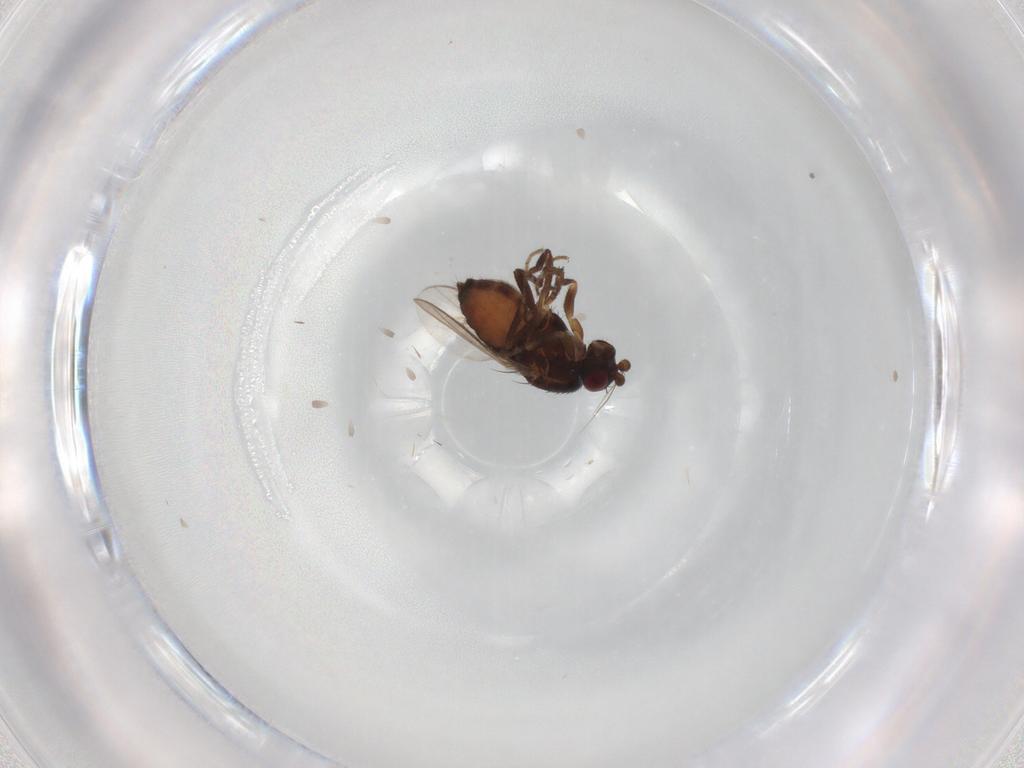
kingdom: Animalia
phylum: Arthropoda
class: Insecta
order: Diptera
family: Sphaeroceridae
